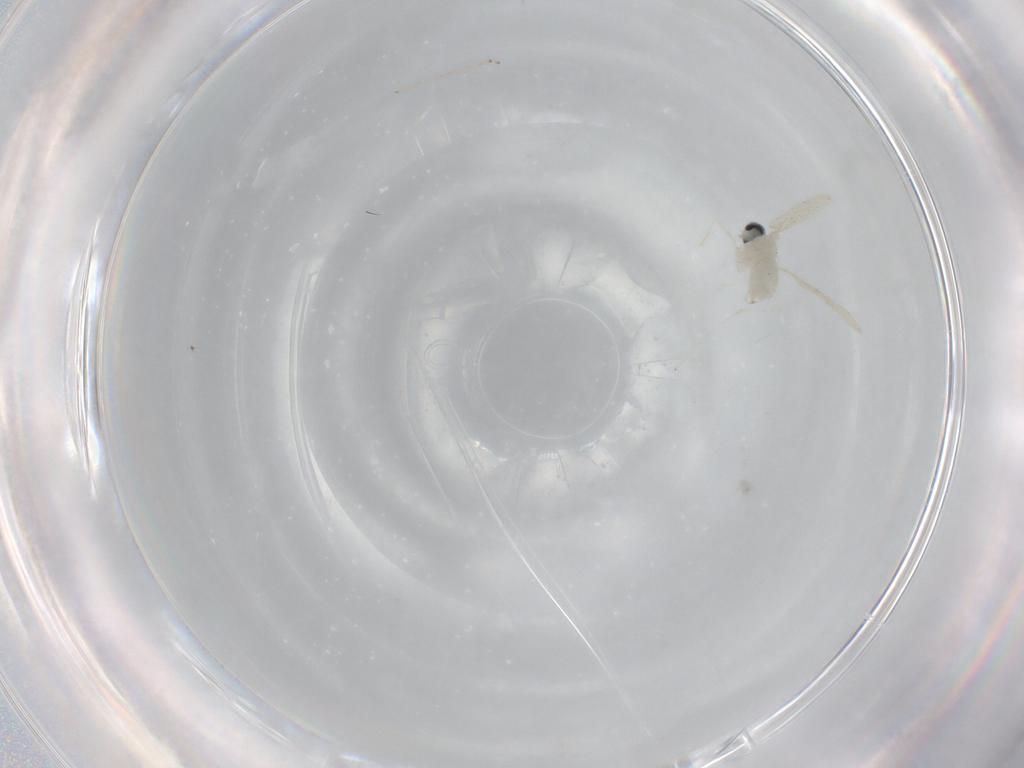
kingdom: Animalia
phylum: Arthropoda
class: Insecta
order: Diptera
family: Cecidomyiidae
